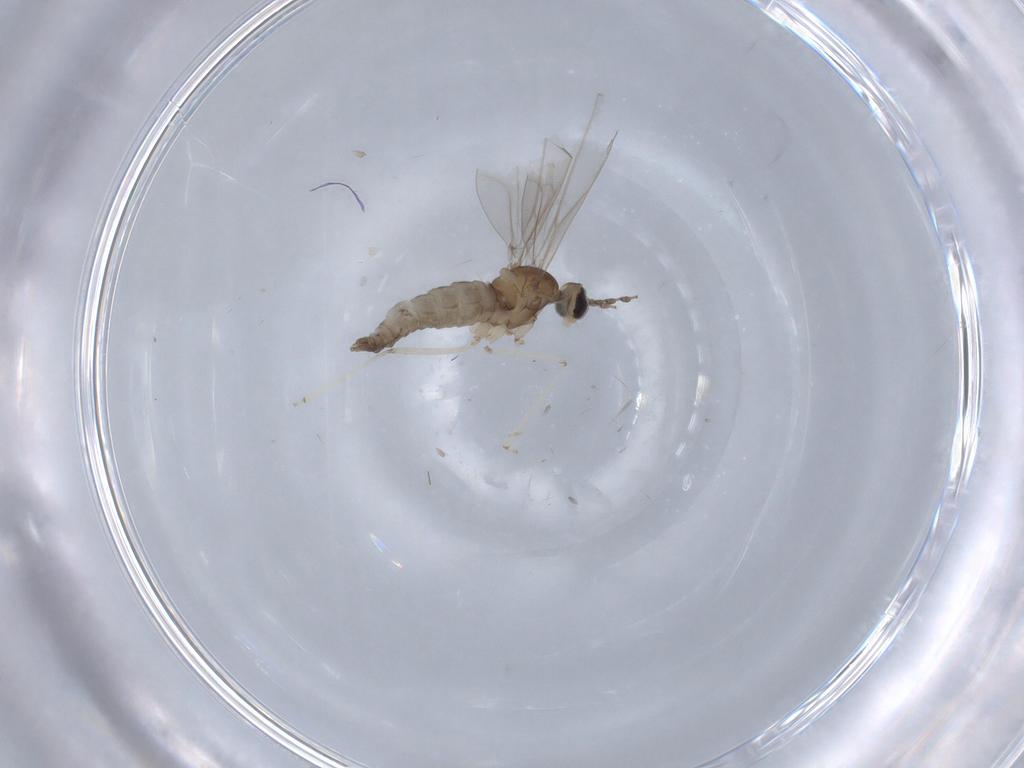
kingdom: Animalia
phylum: Arthropoda
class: Insecta
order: Diptera
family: Cecidomyiidae
